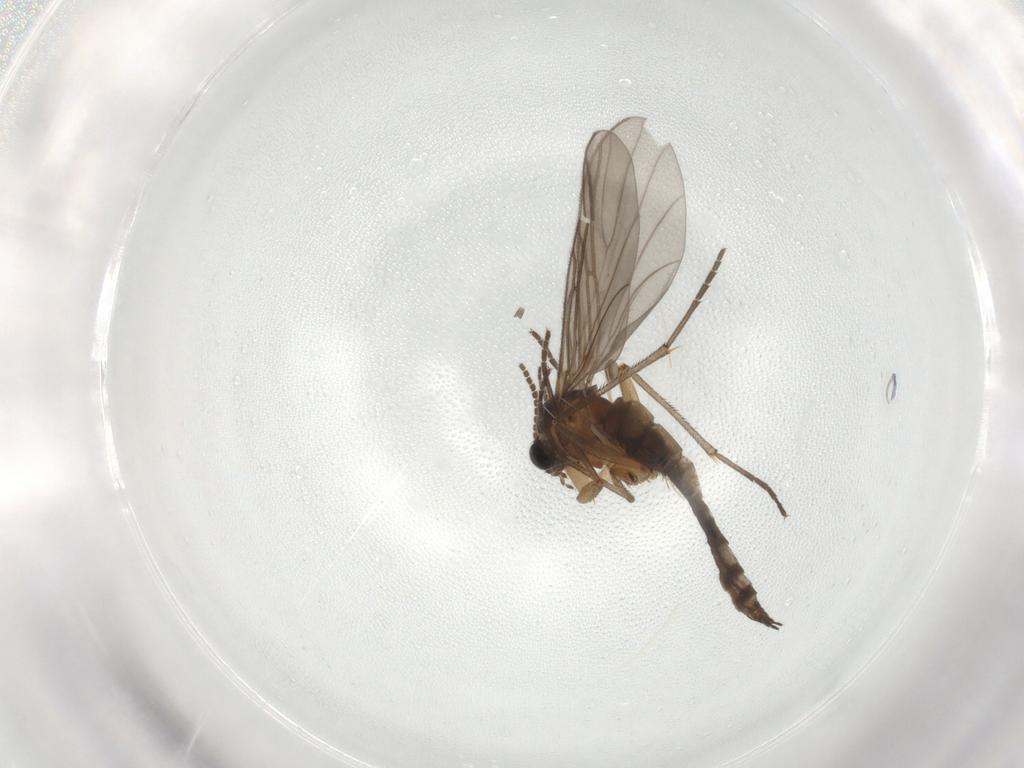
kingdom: Animalia
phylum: Arthropoda
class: Insecta
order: Diptera
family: Sciaridae
